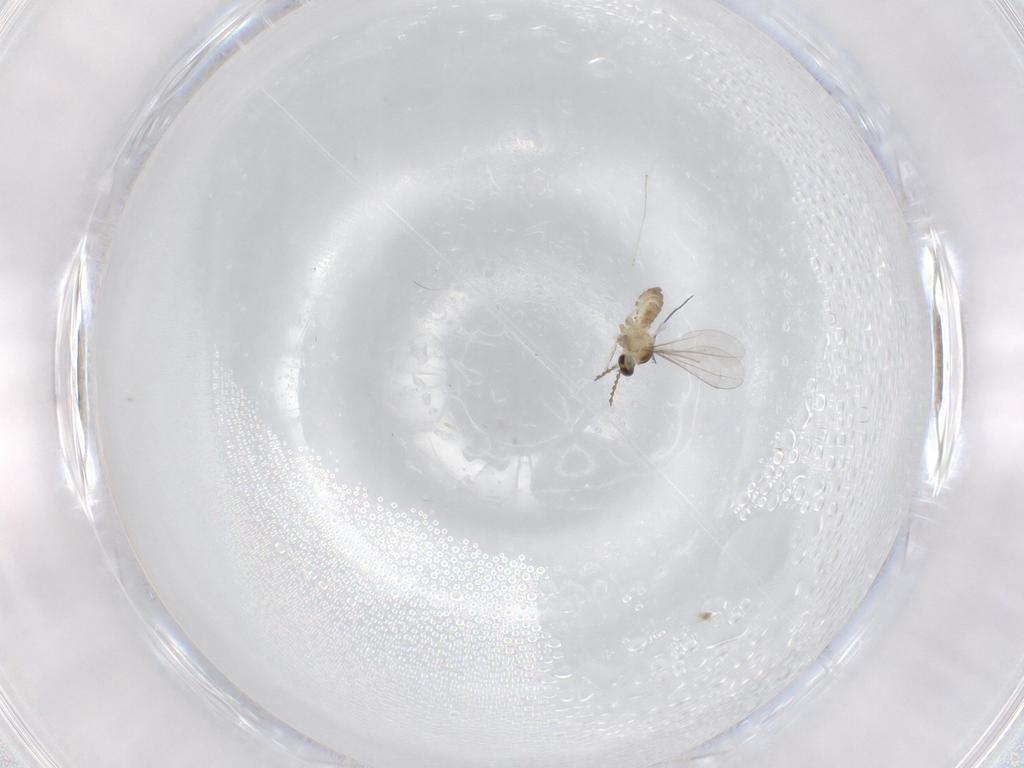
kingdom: Animalia
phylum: Arthropoda
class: Insecta
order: Diptera
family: Cecidomyiidae
